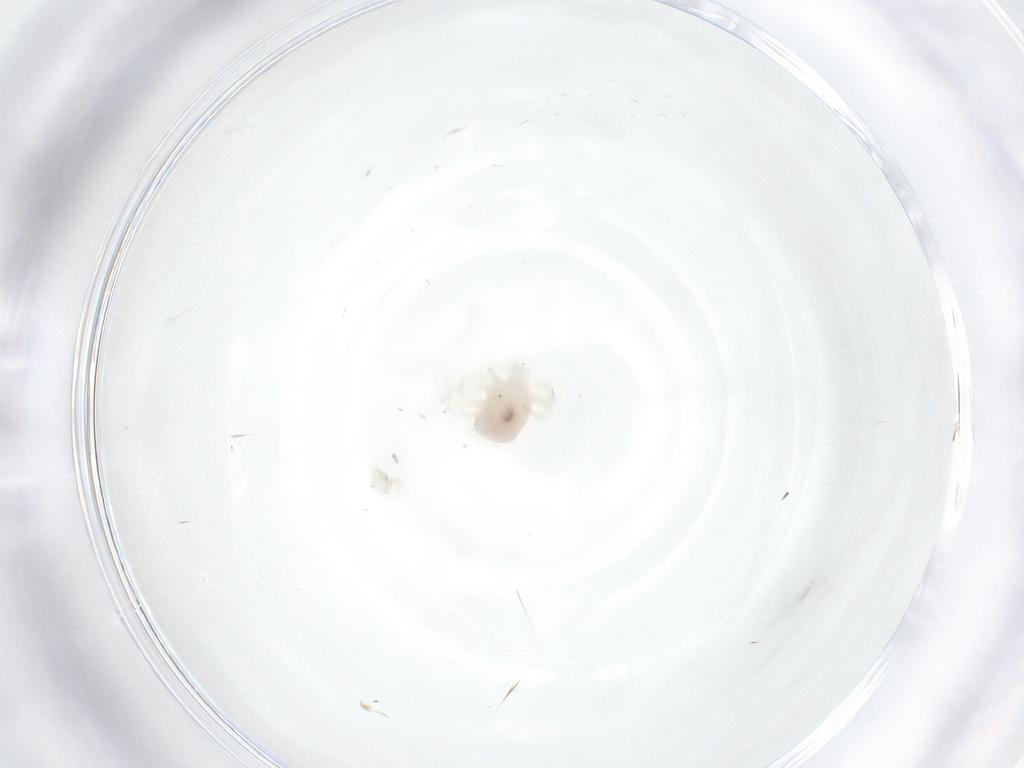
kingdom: Animalia
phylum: Arthropoda
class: Arachnida
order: Trombidiformes
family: Anystidae
